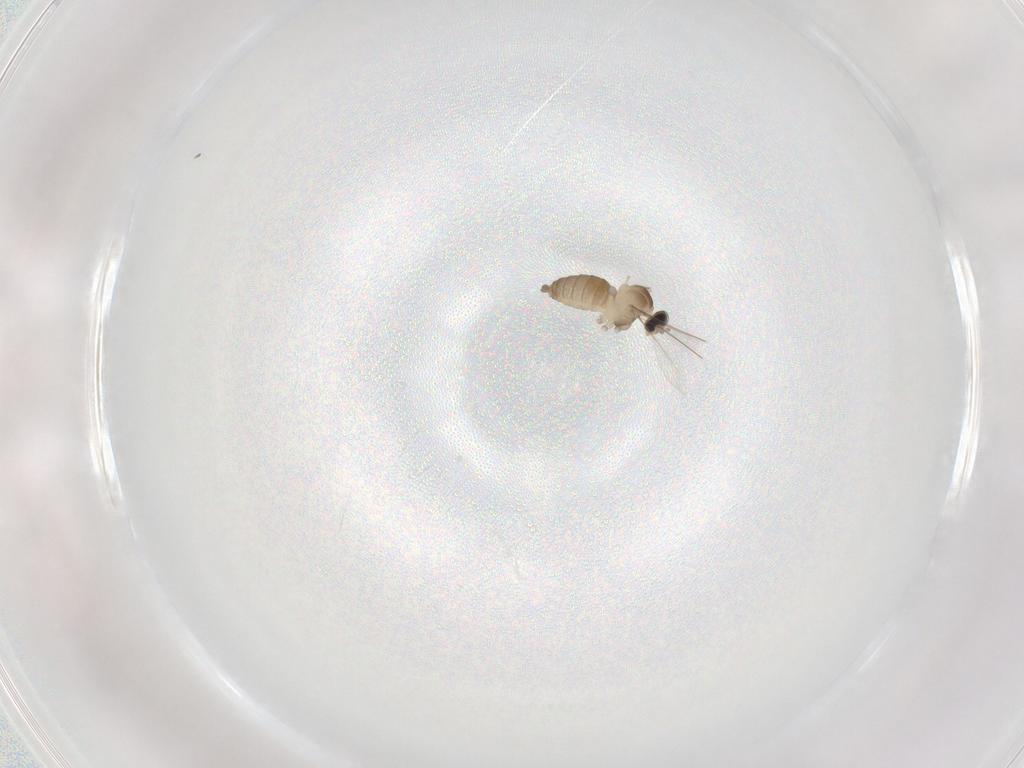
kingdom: Animalia
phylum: Arthropoda
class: Insecta
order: Diptera
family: Cecidomyiidae
